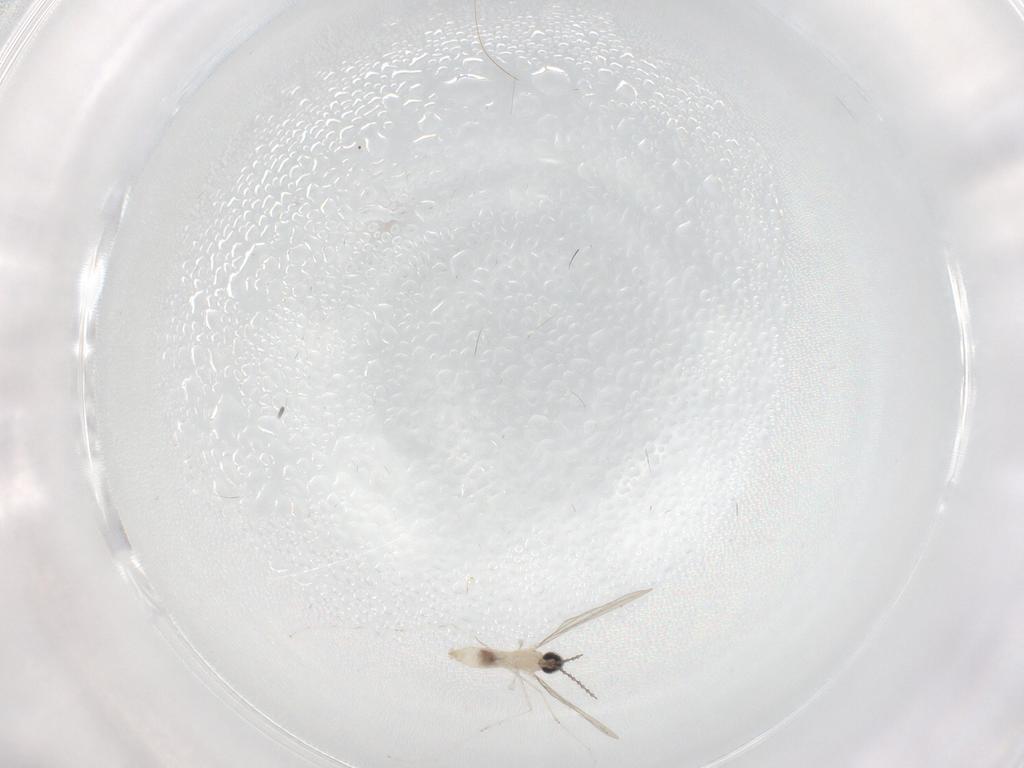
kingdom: Animalia
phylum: Arthropoda
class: Insecta
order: Diptera
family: Cecidomyiidae
